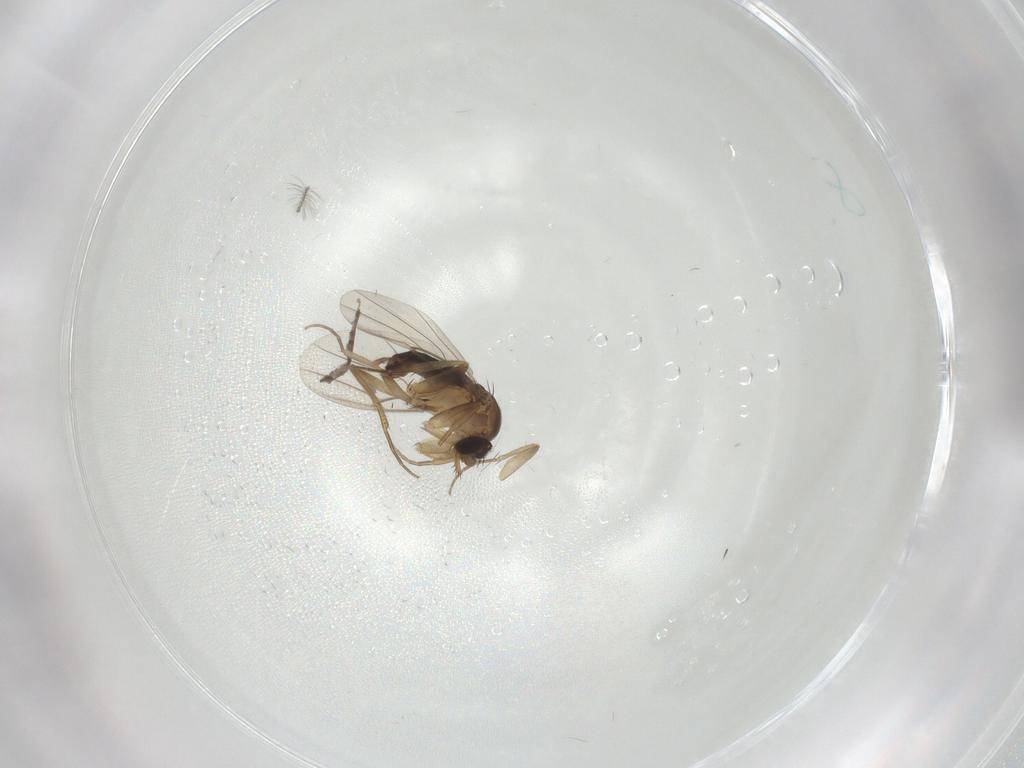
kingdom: Animalia
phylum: Arthropoda
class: Insecta
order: Diptera
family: Phoridae
